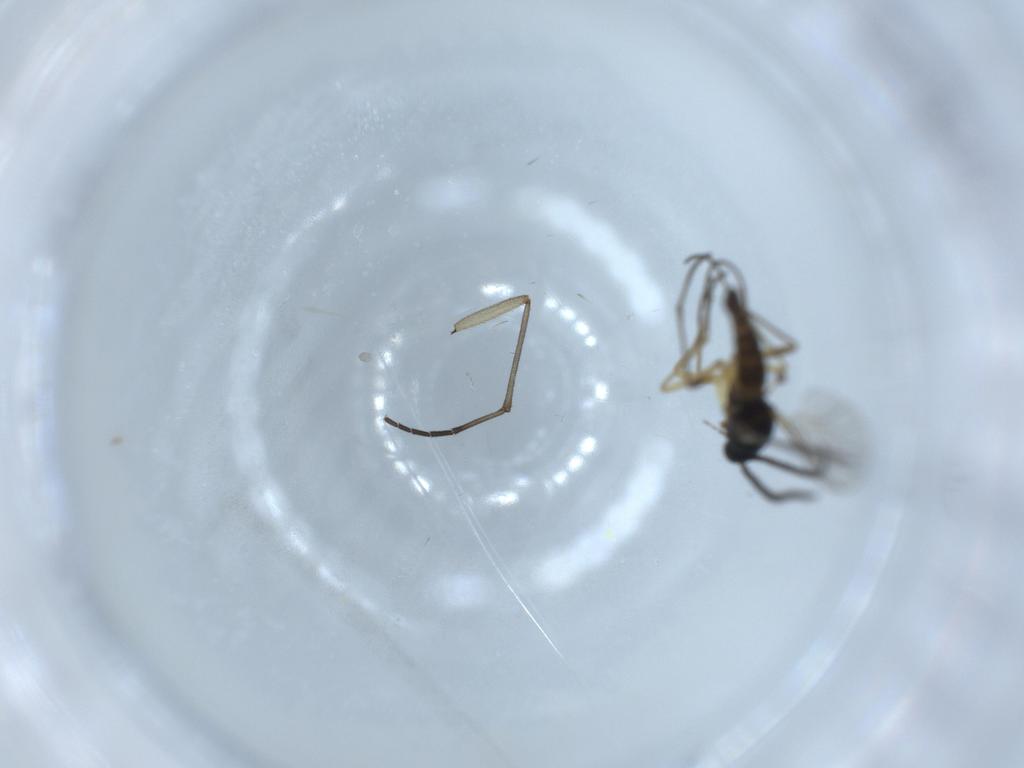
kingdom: Animalia
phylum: Arthropoda
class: Insecta
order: Diptera
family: Sciaridae
